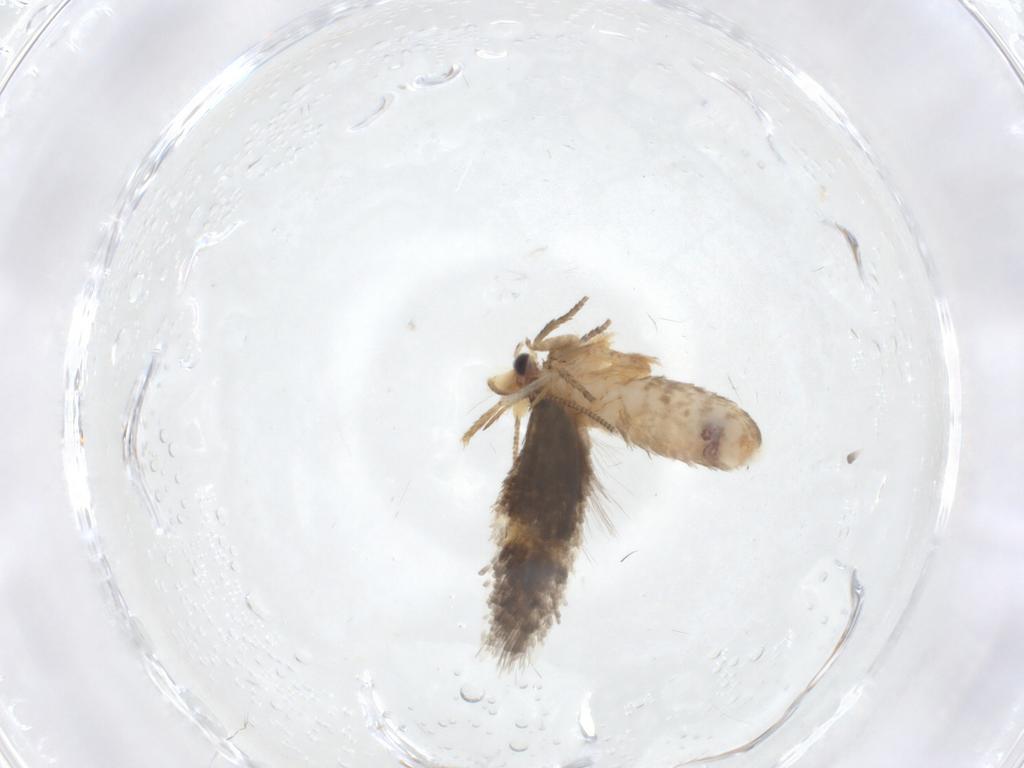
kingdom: Animalia
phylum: Arthropoda
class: Insecta
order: Lepidoptera
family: Nepticulidae
